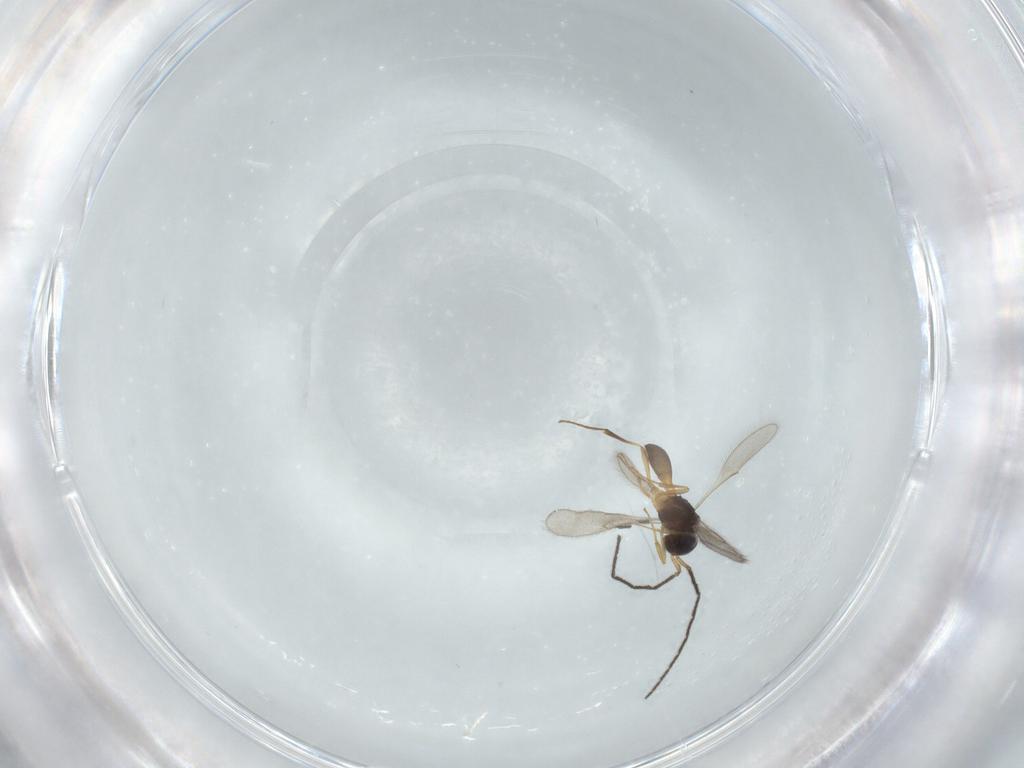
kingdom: Animalia
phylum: Arthropoda
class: Insecta
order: Hymenoptera
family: Scelionidae
